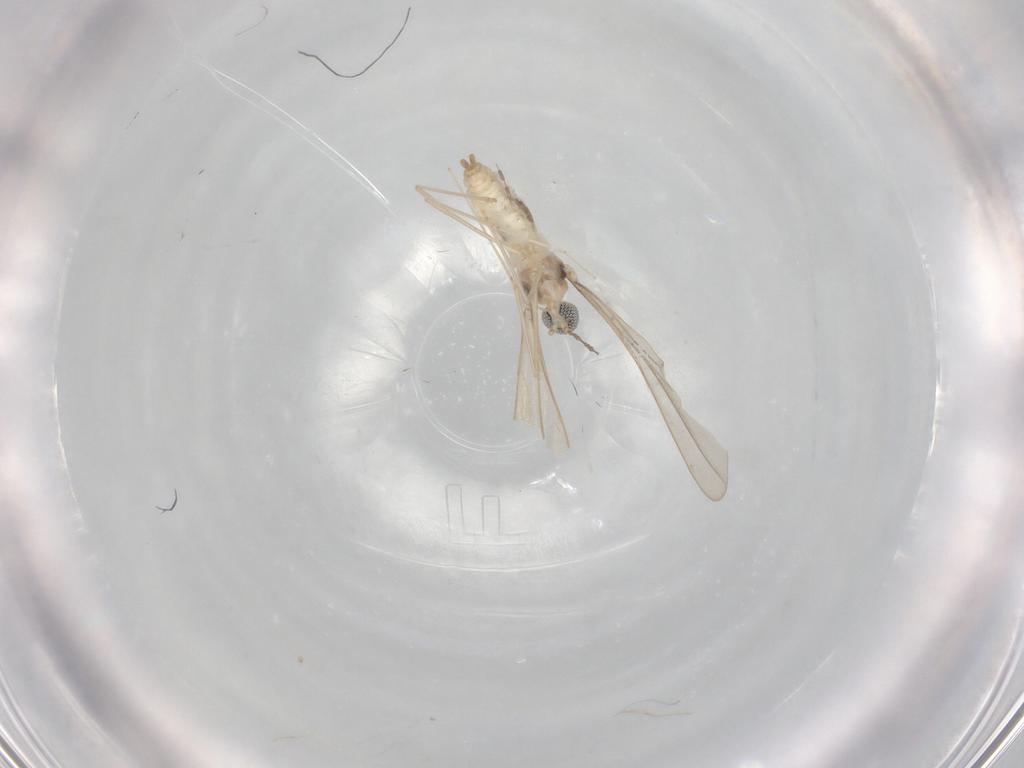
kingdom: Animalia
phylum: Arthropoda
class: Insecta
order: Diptera
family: Psychodidae
